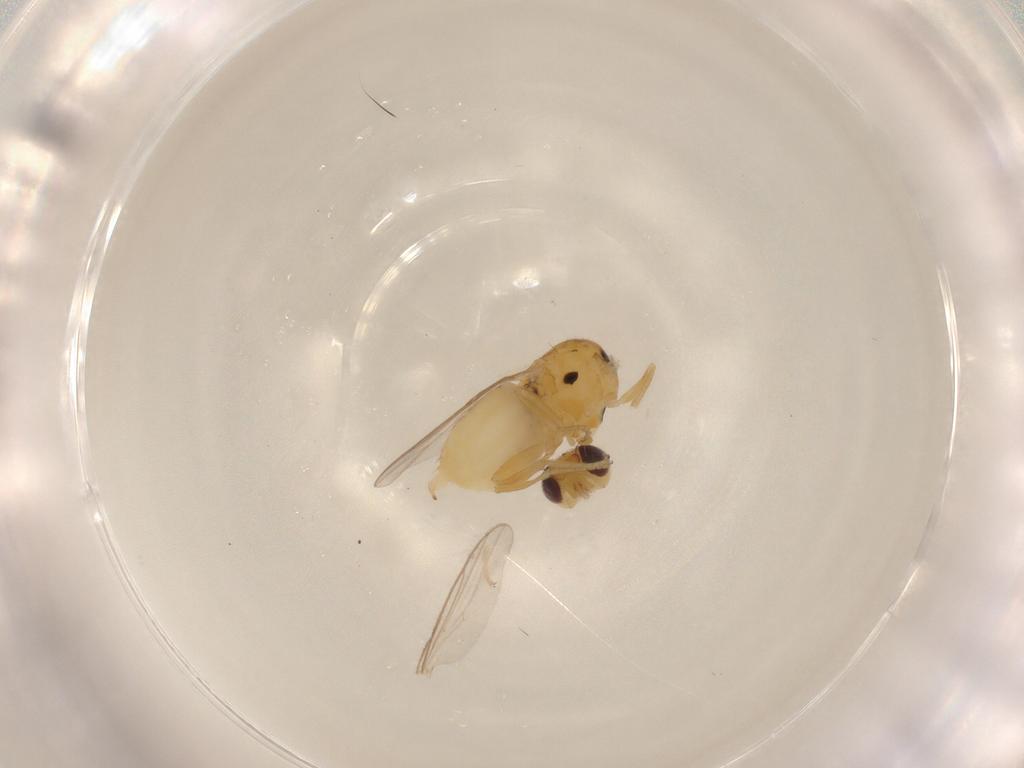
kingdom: Animalia
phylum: Arthropoda
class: Insecta
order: Diptera
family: Chloropidae
